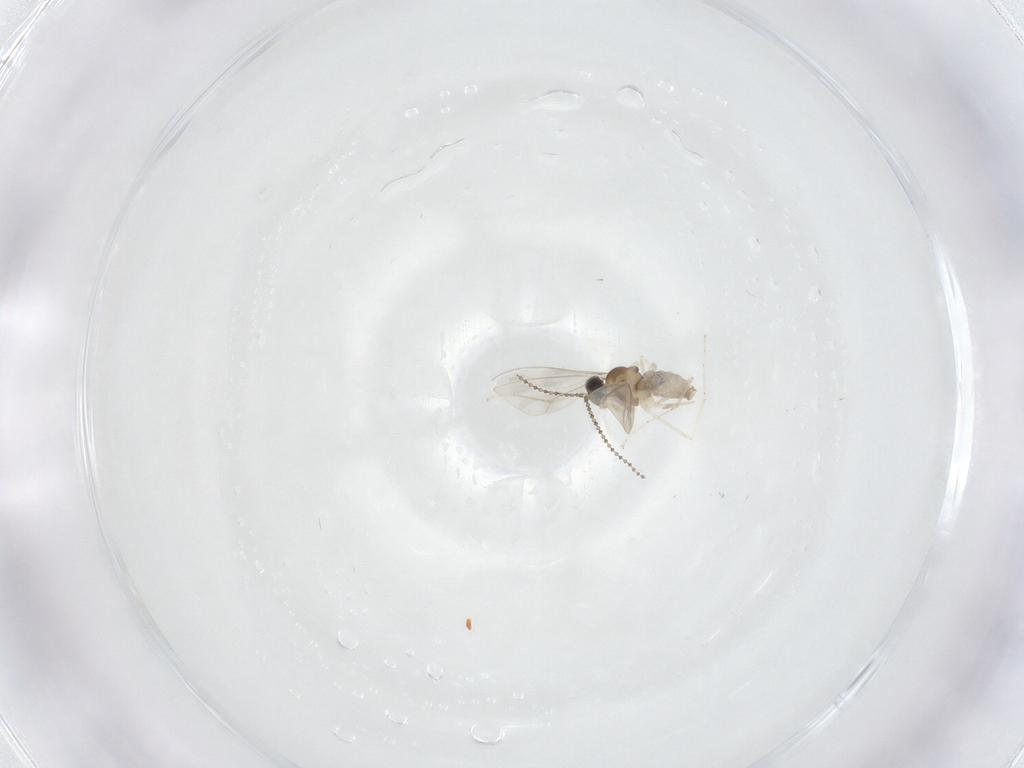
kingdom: Animalia
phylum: Arthropoda
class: Insecta
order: Diptera
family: Cecidomyiidae
